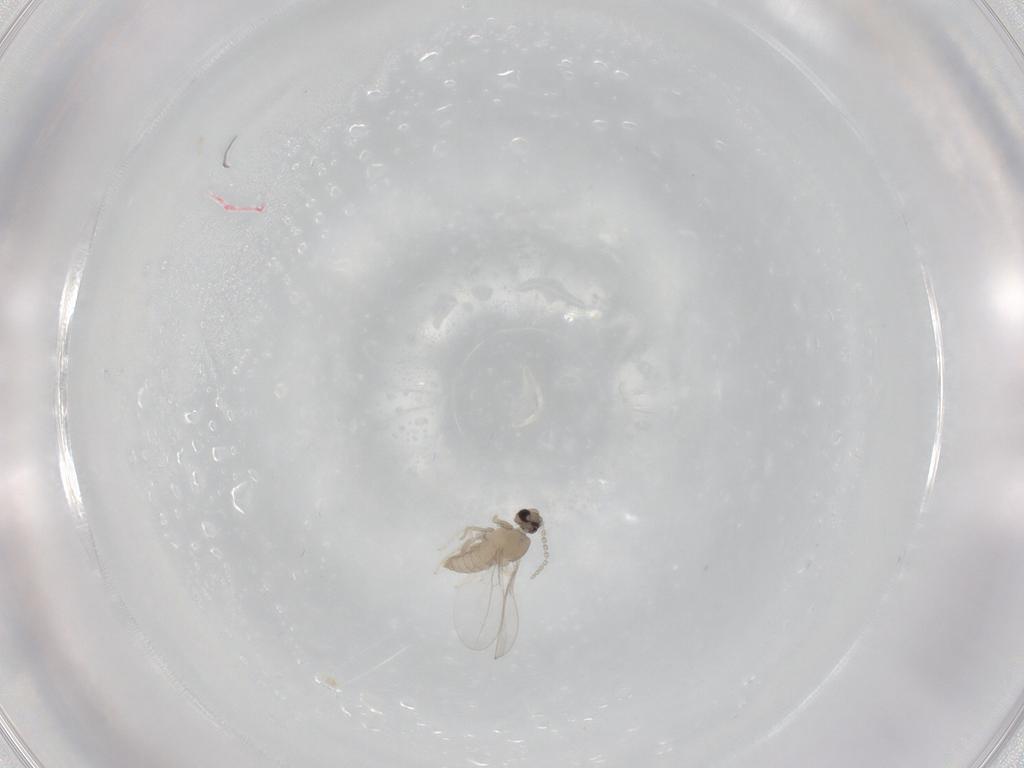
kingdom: Animalia
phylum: Arthropoda
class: Insecta
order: Diptera
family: Cecidomyiidae
